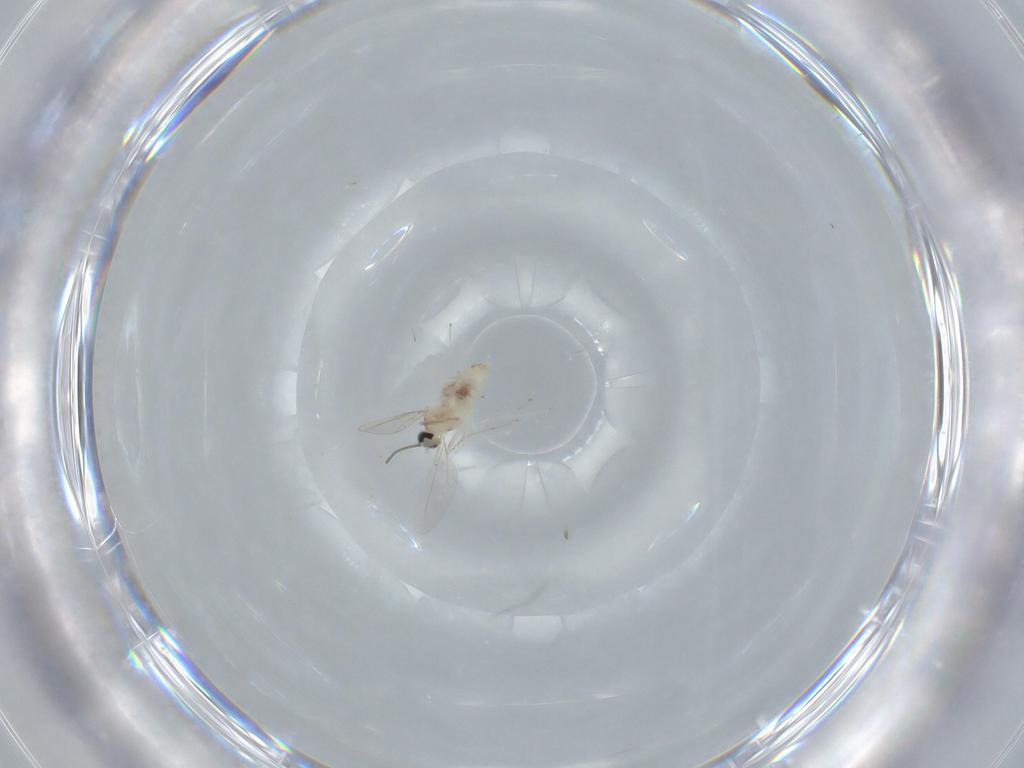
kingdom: Animalia
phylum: Arthropoda
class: Insecta
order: Diptera
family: Cecidomyiidae
